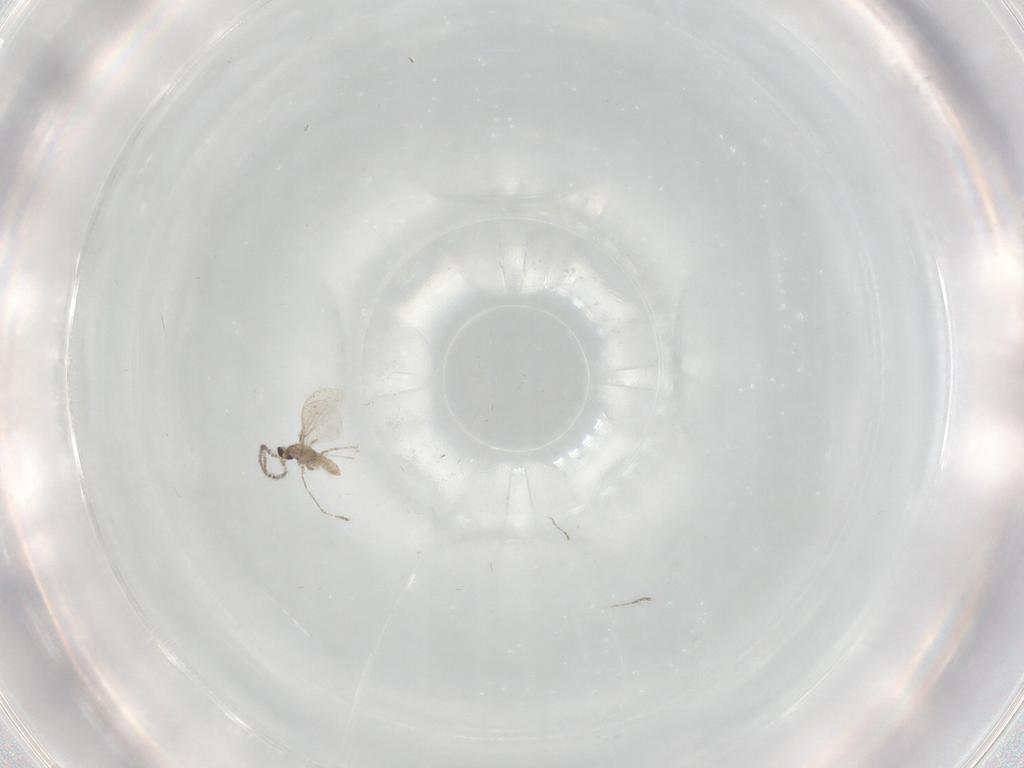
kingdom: Animalia
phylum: Arthropoda
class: Insecta
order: Diptera
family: Cecidomyiidae
